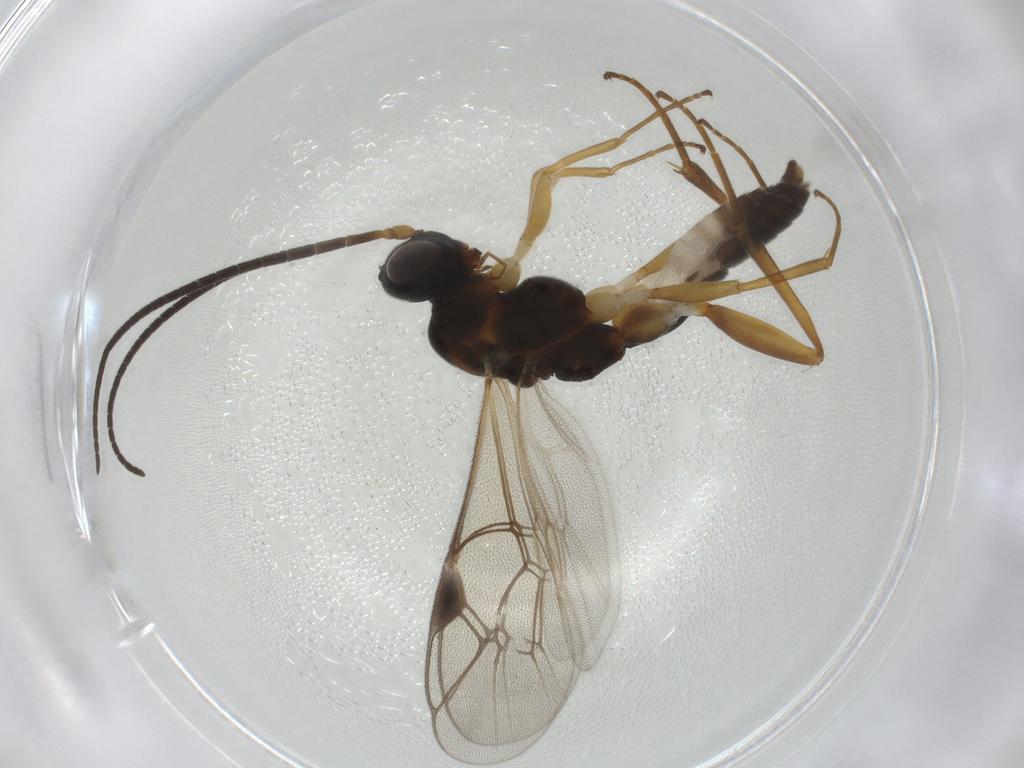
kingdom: Animalia
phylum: Arthropoda
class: Insecta
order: Hymenoptera
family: Ichneumonidae
